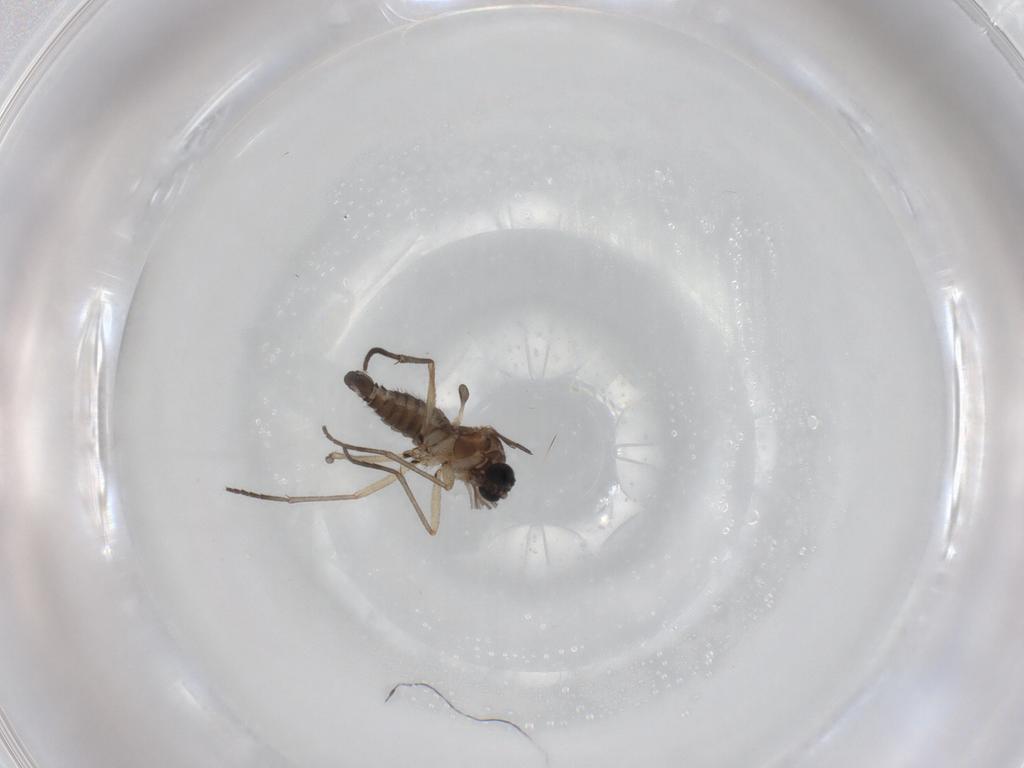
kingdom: Animalia
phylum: Arthropoda
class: Insecta
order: Diptera
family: Sciaridae
